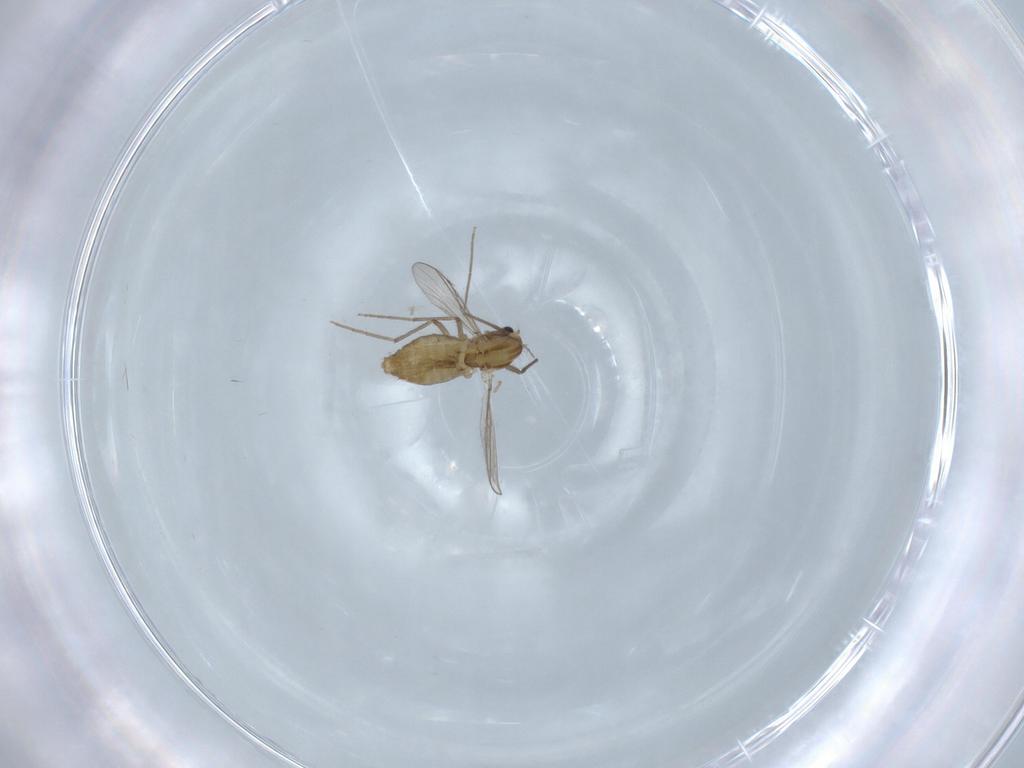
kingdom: Animalia
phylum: Arthropoda
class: Insecta
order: Diptera
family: Chironomidae
